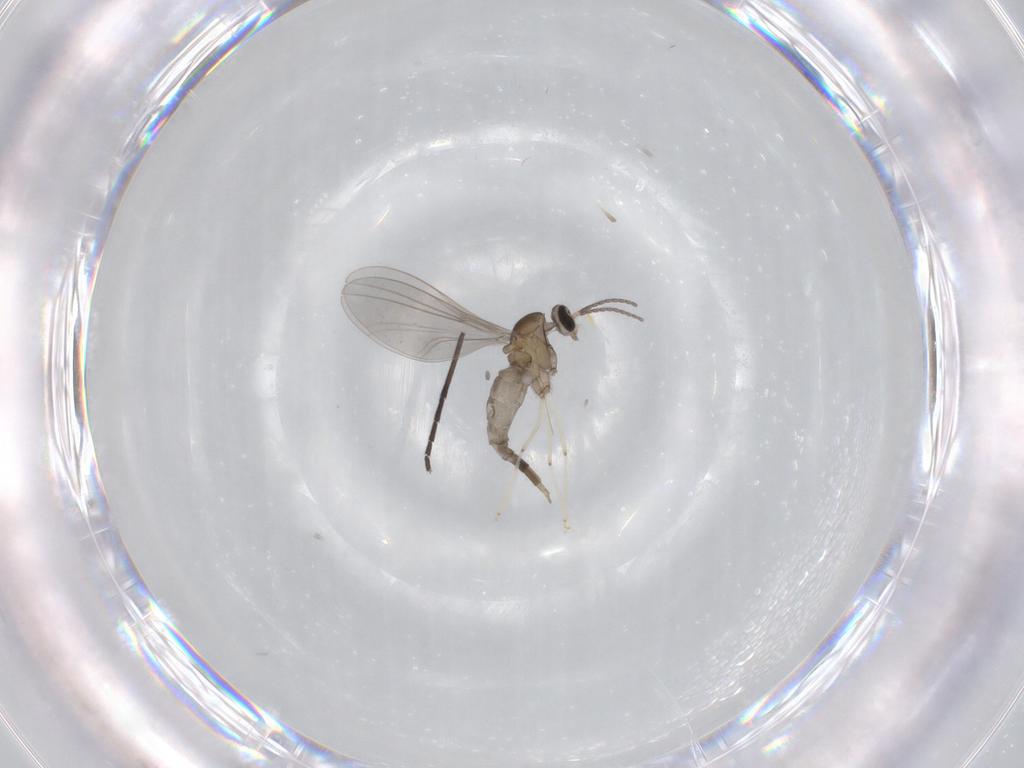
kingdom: Animalia
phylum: Arthropoda
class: Insecta
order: Diptera
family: Cecidomyiidae
